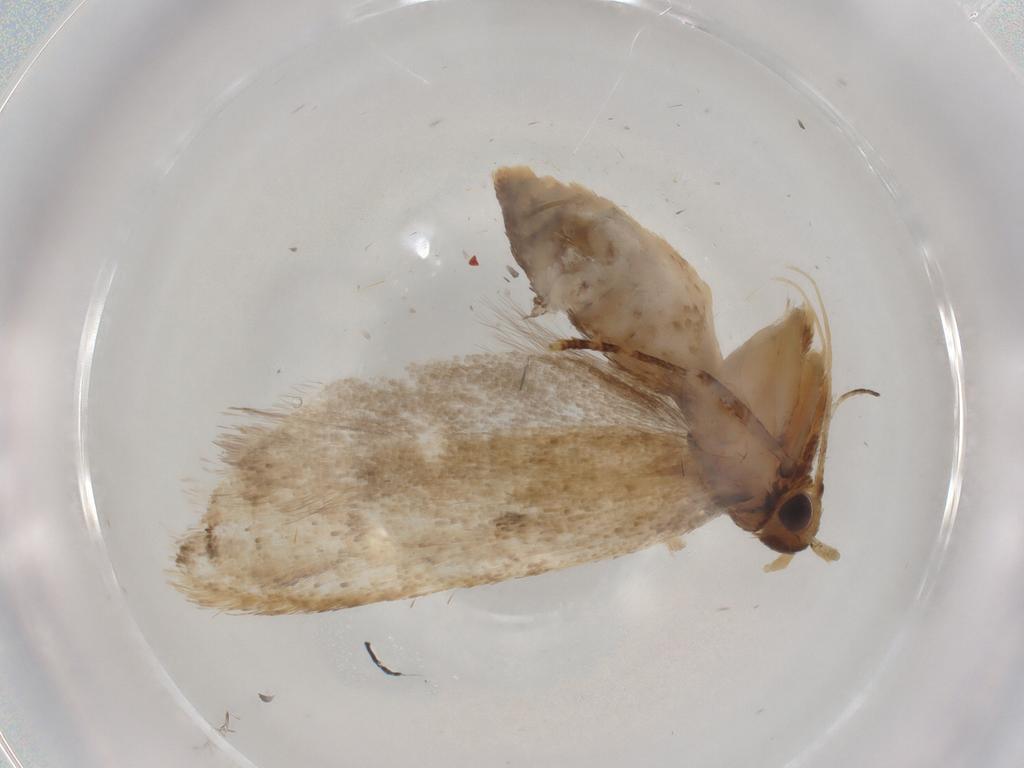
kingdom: Animalia
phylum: Arthropoda
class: Insecta
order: Lepidoptera
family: Lecithoceridae
